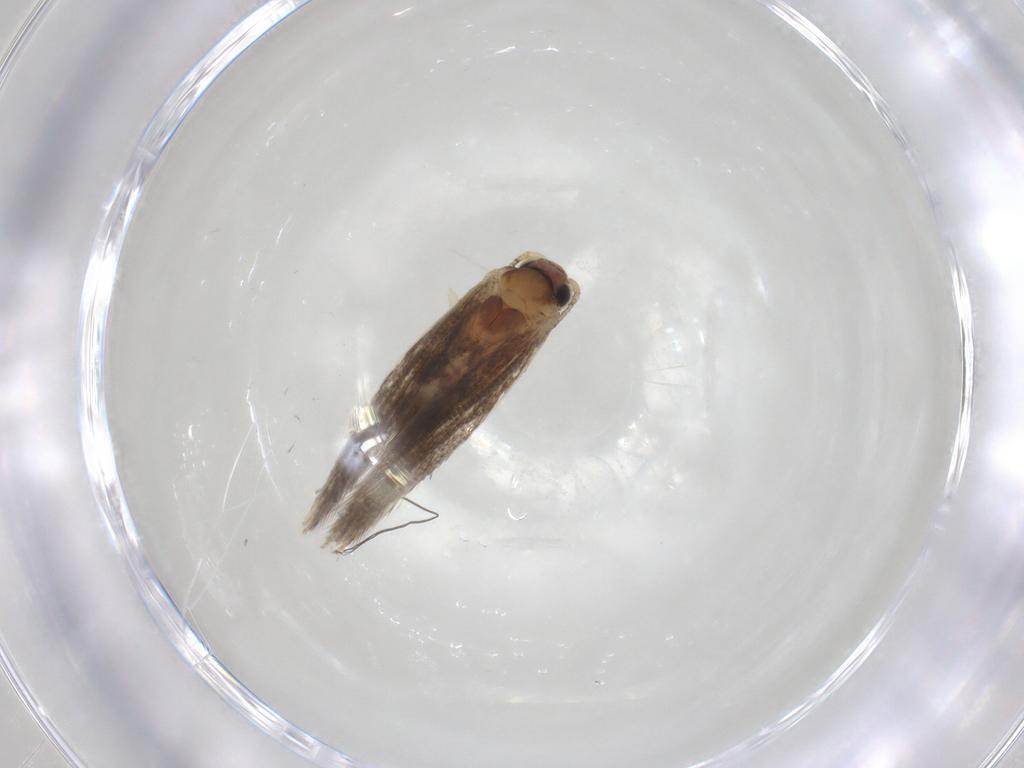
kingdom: Animalia
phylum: Arthropoda
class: Insecta
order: Lepidoptera
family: Tineidae
